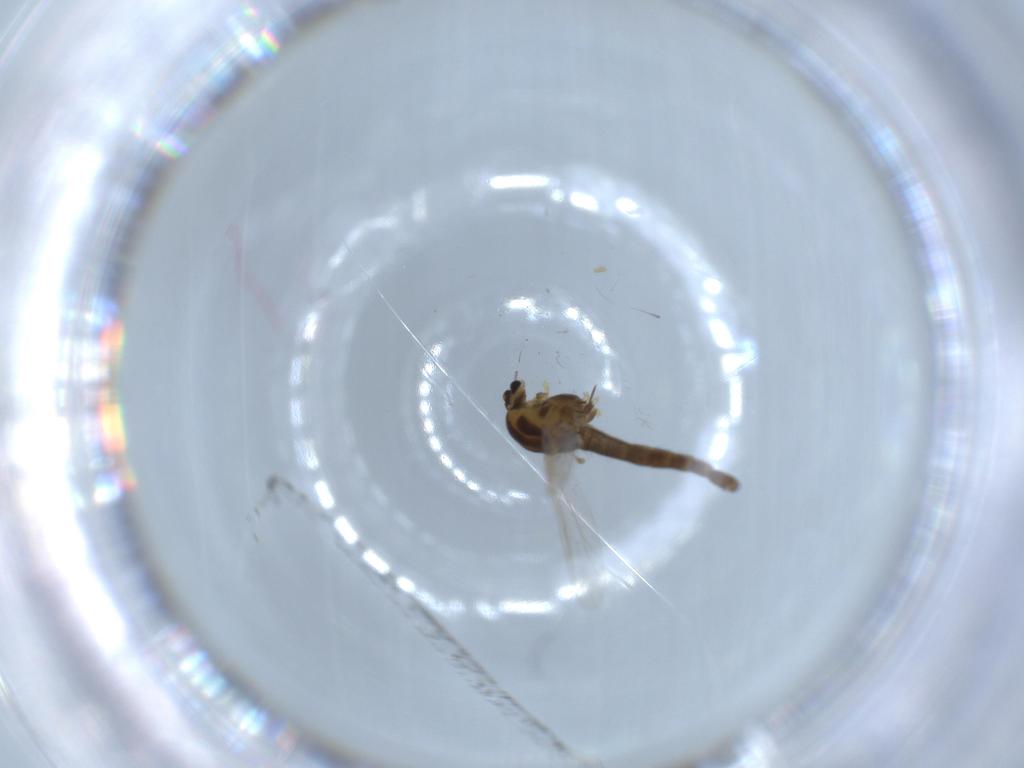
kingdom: Animalia
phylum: Arthropoda
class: Insecta
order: Diptera
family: Chironomidae
